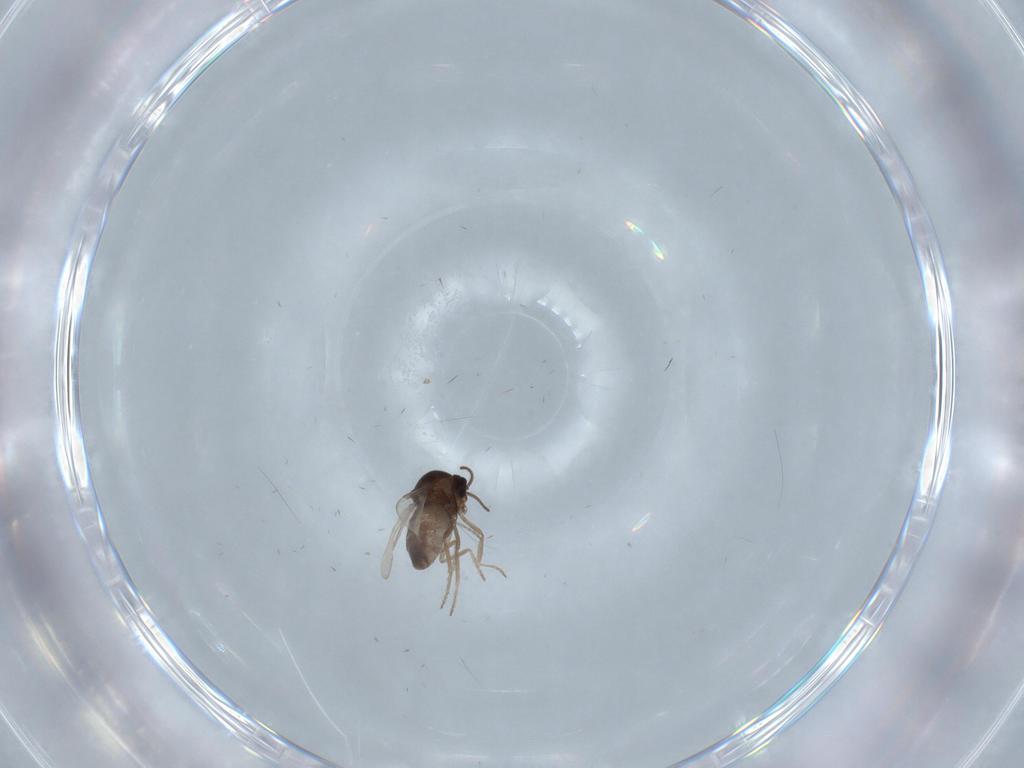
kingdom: Animalia
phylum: Arthropoda
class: Insecta
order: Diptera
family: Ceratopogonidae
